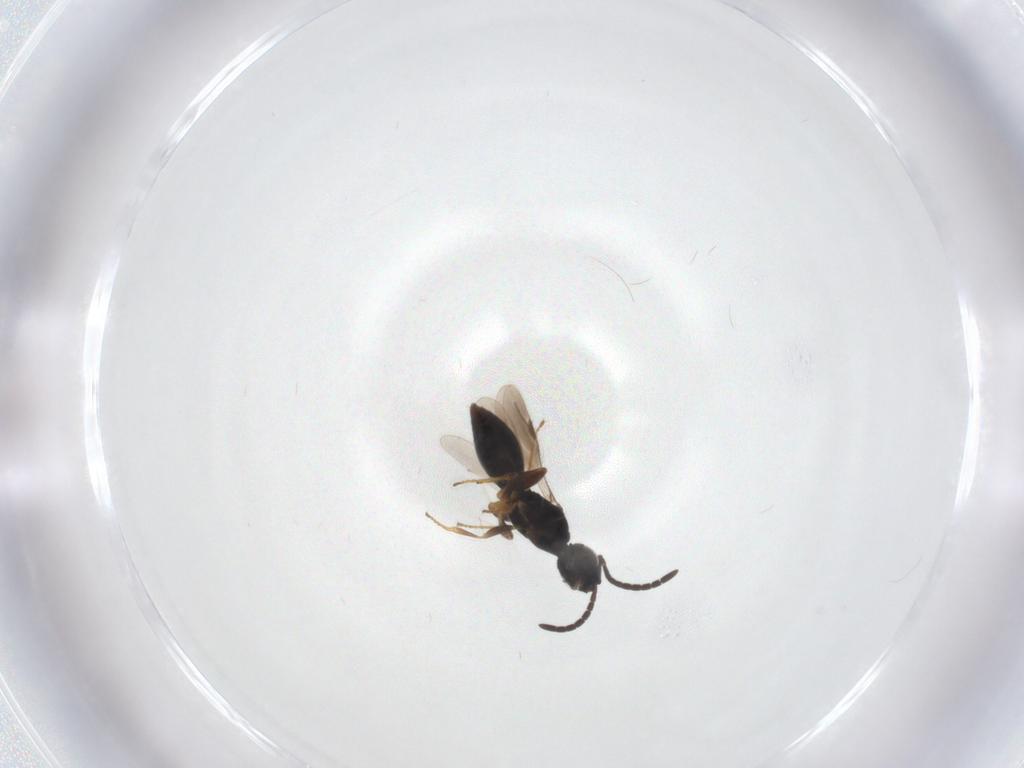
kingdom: Animalia
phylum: Arthropoda
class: Insecta
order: Hymenoptera
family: Megaspilidae
